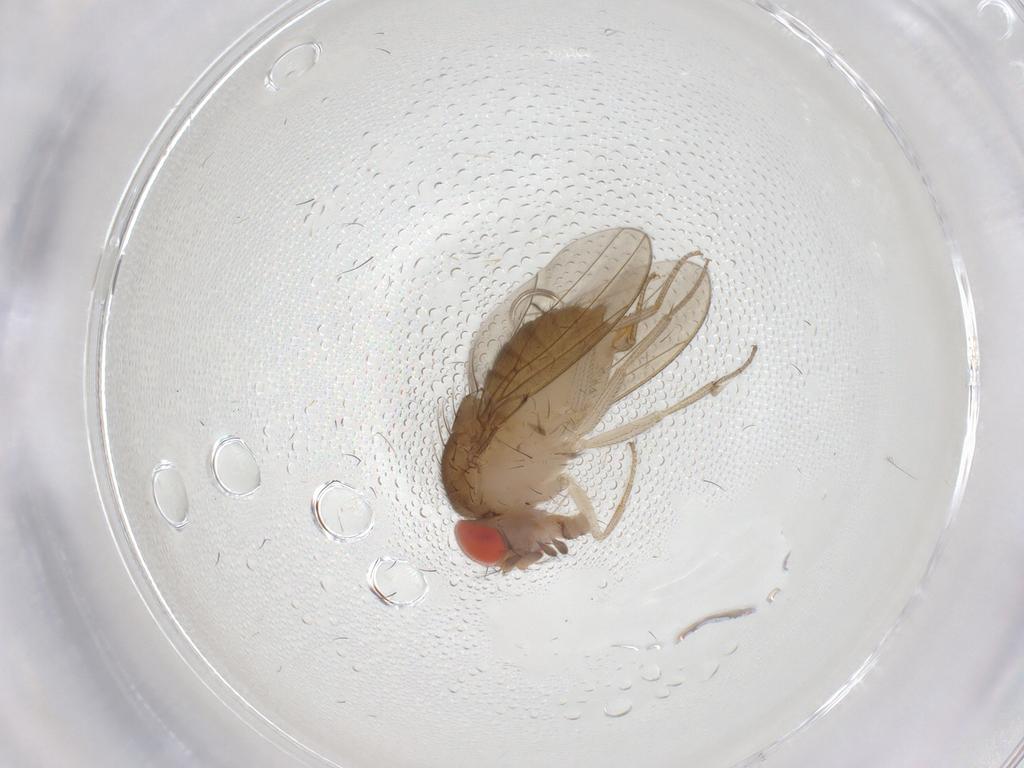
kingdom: Animalia
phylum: Arthropoda
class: Insecta
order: Diptera
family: Drosophilidae
